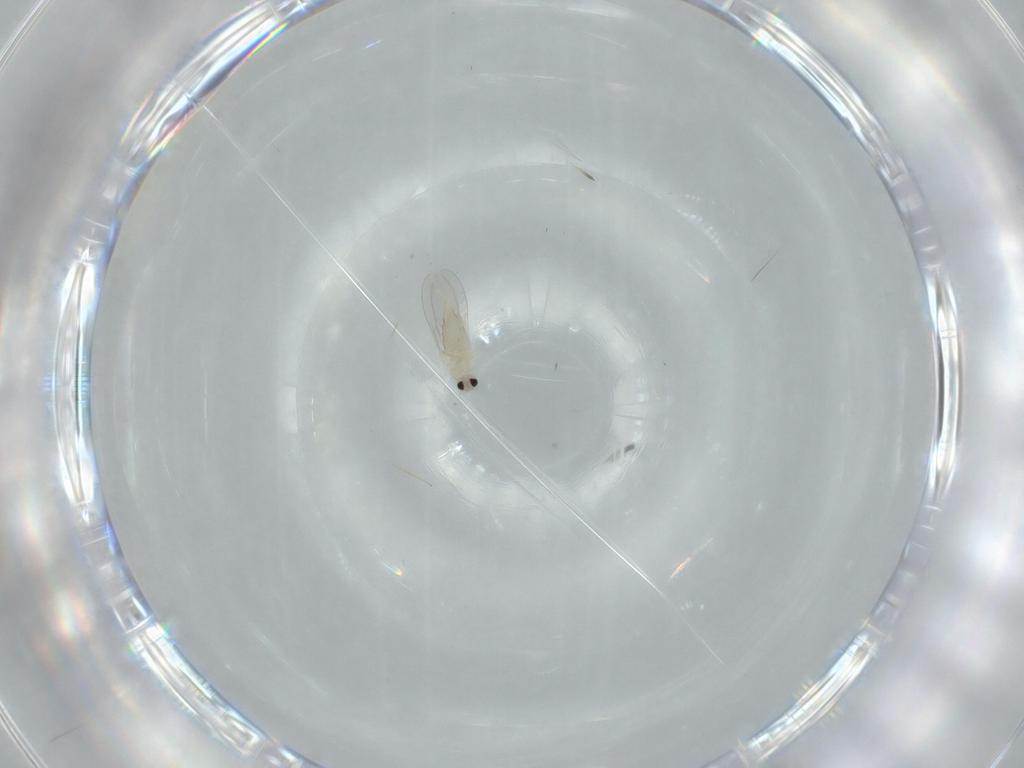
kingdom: Animalia
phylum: Arthropoda
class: Insecta
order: Diptera
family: Cecidomyiidae
